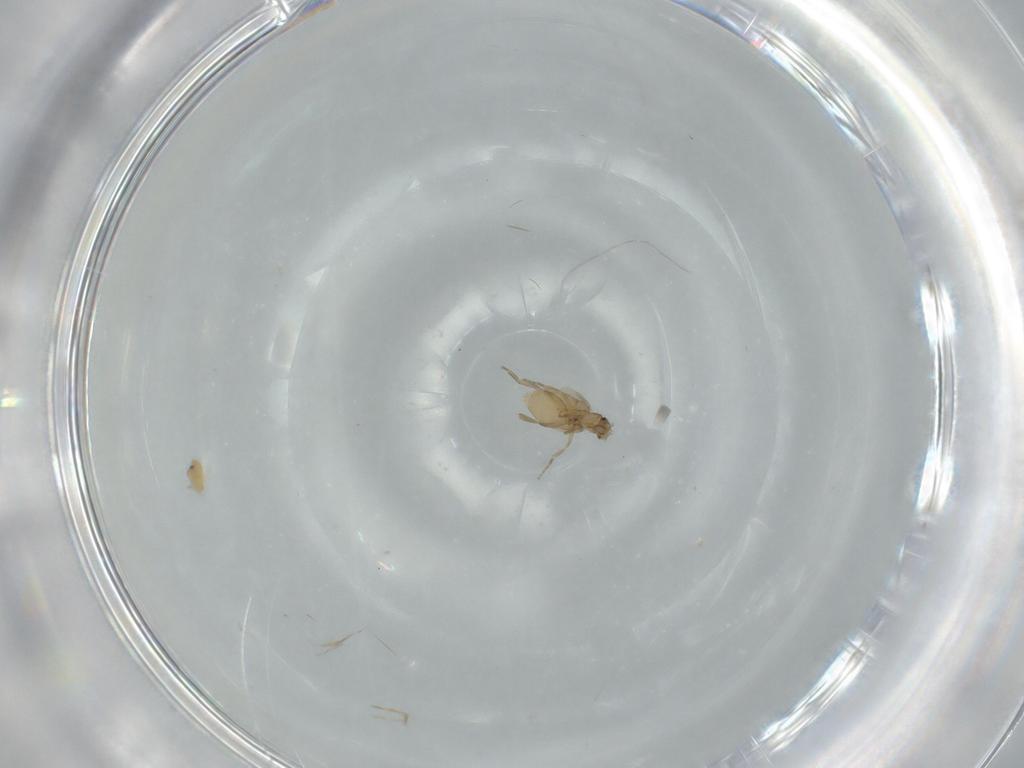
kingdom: Animalia
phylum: Arthropoda
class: Insecta
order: Diptera
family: Phoridae
